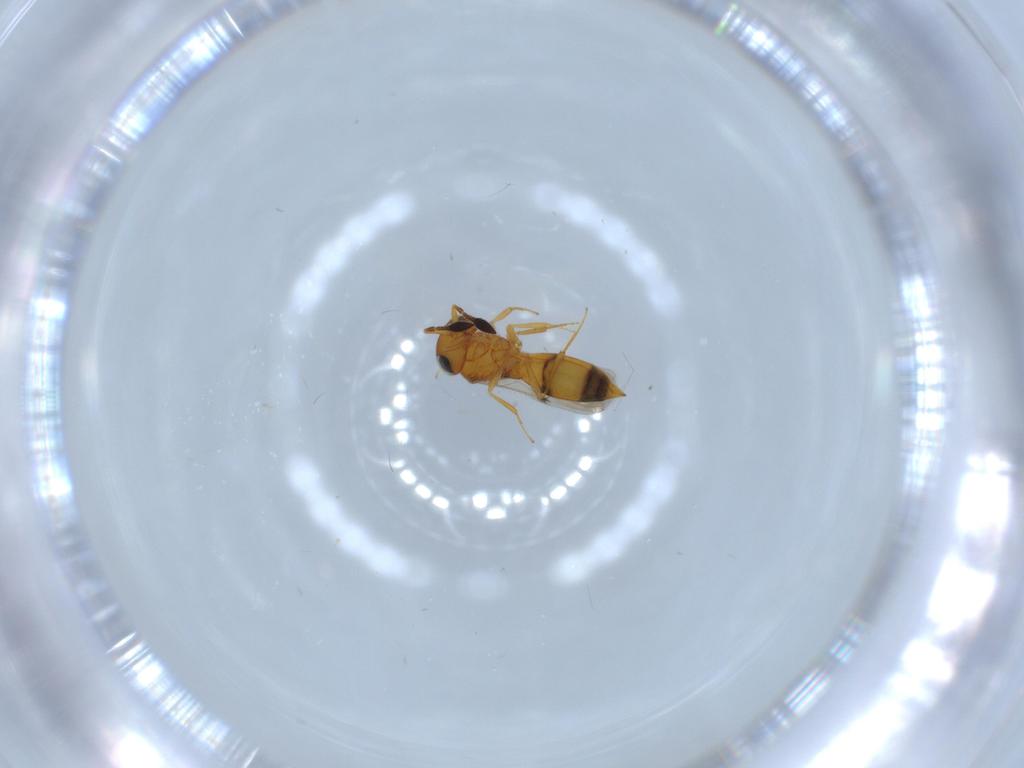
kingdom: Animalia
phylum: Arthropoda
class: Insecta
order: Hymenoptera
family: Scelionidae
